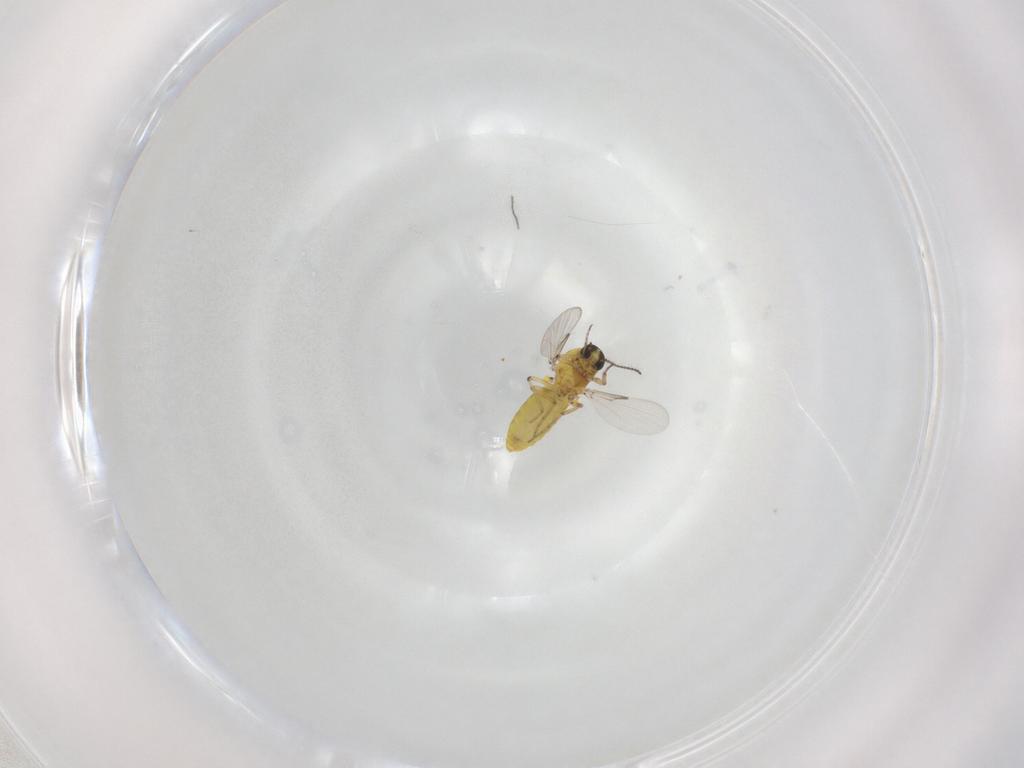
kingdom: Animalia
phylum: Arthropoda
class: Insecta
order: Diptera
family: Ceratopogonidae
